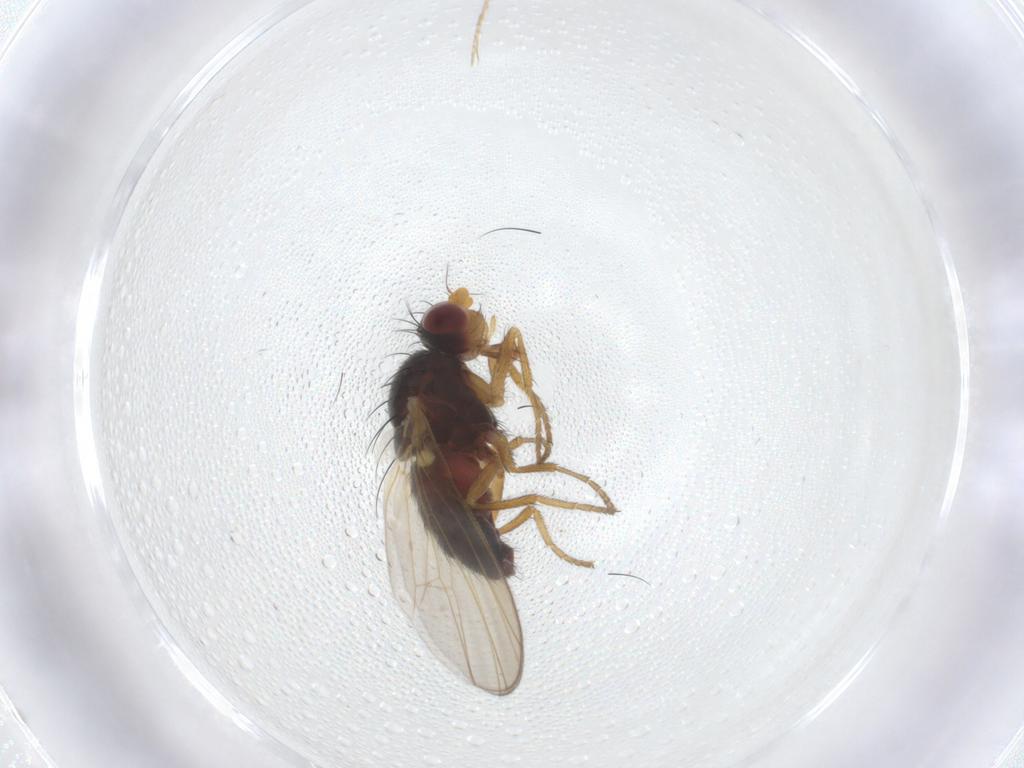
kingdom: Animalia
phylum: Arthropoda
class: Insecta
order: Diptera
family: Heleomyzidae
